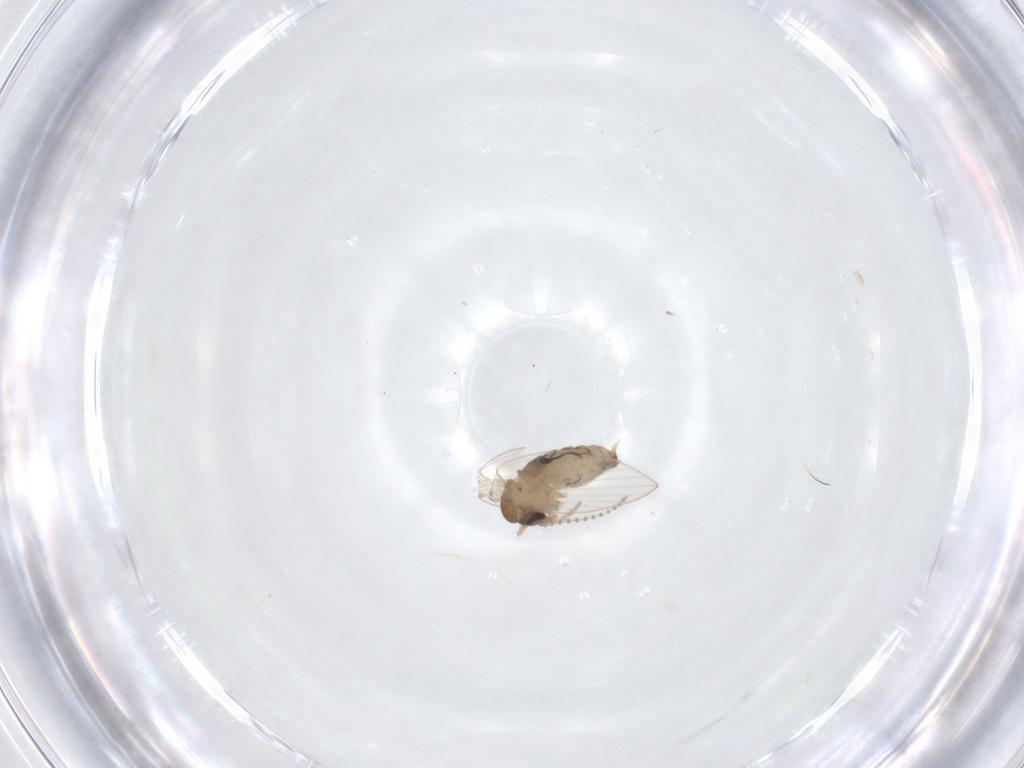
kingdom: Animalia
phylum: Arthropoda
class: Insecta
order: Diptera
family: Psychodidae
